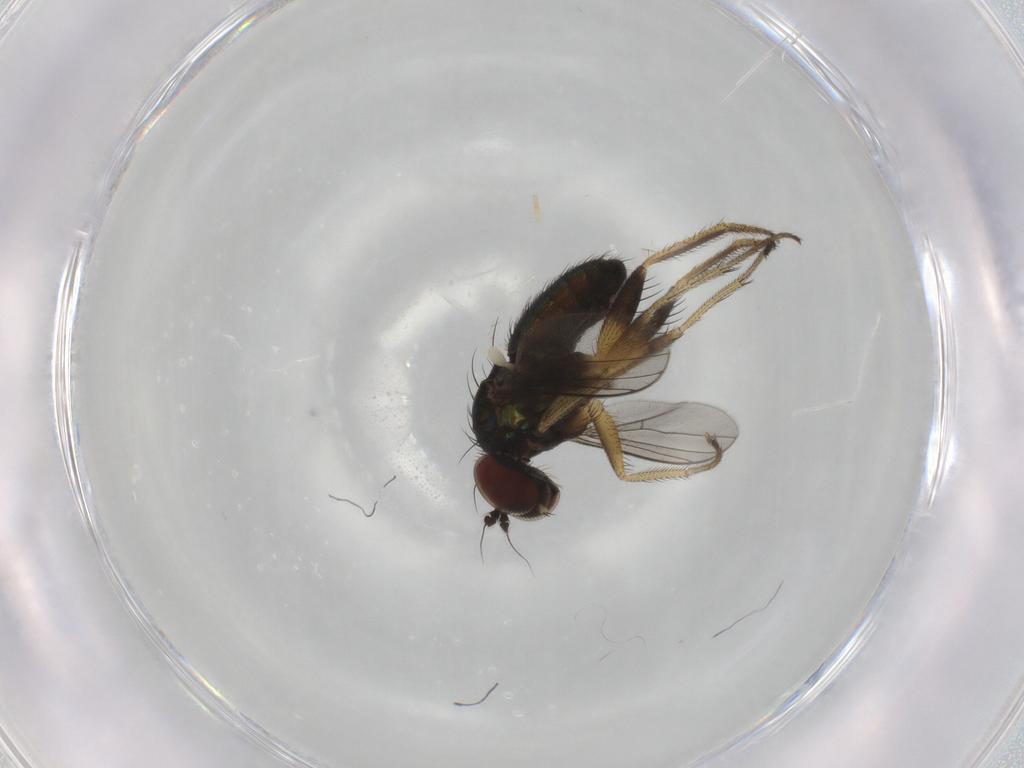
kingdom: Animalia
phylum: Arthropoda
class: Insecta
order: Diptera
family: Dolichopodidae
